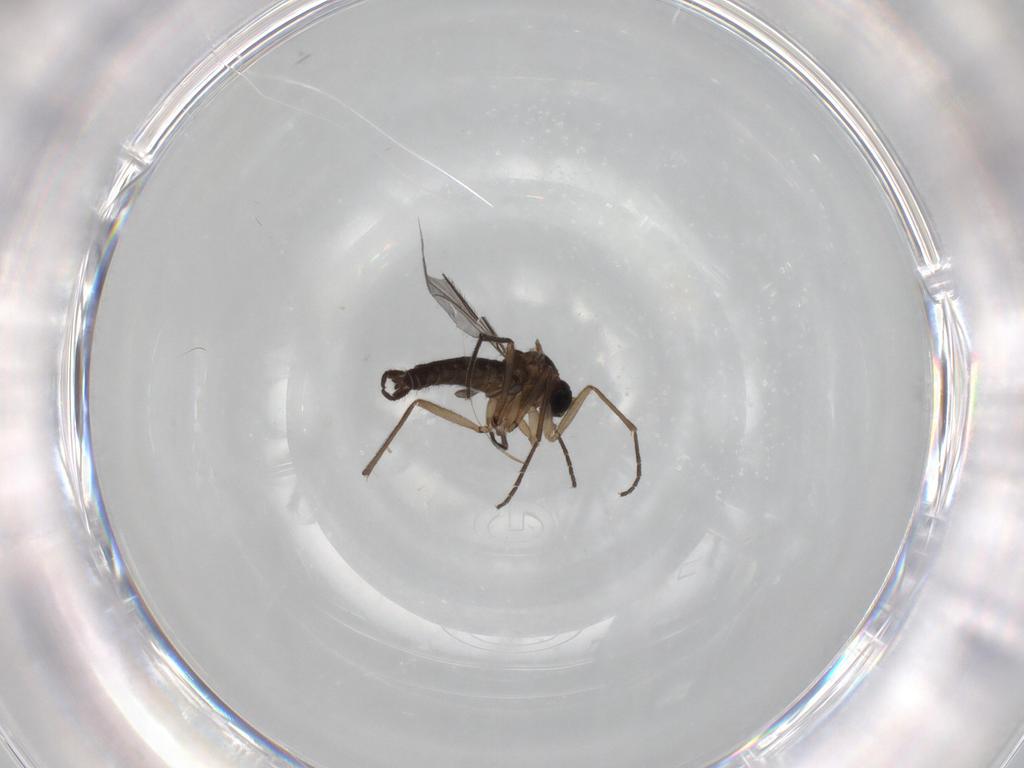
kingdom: Animalia
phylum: Arthropoda
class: Insecta
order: Diptera
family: Sciaridae
